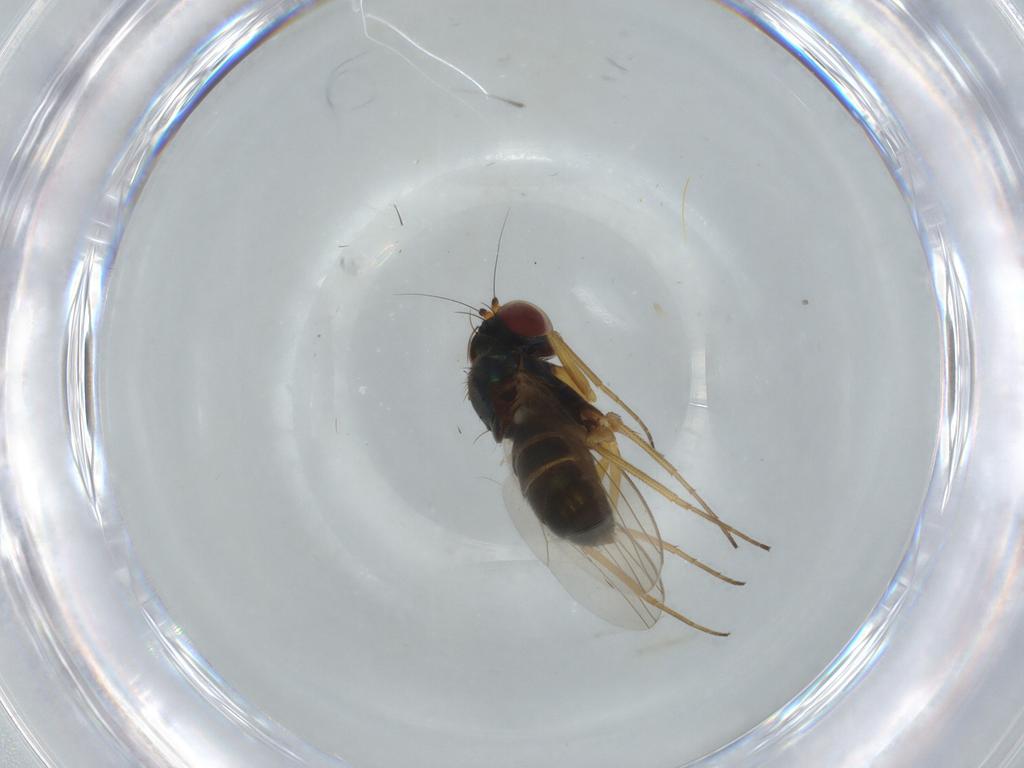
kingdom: Animalia
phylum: Arthropoda
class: Insecta
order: Diptera
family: Dolichopodidae
